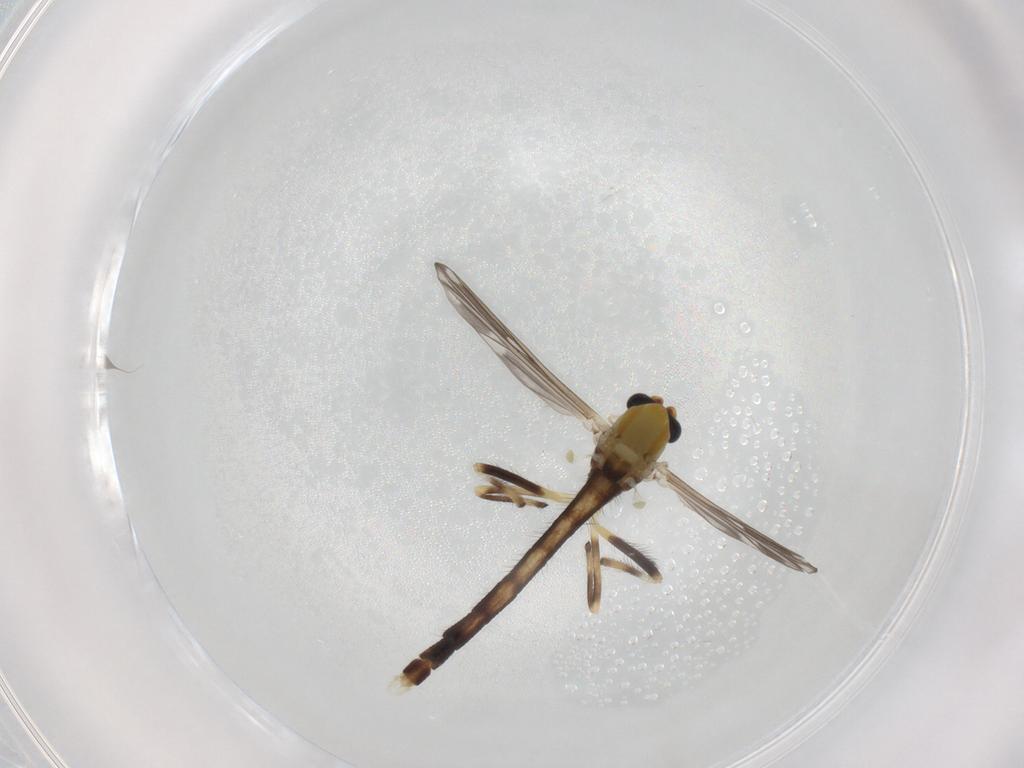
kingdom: Animalia
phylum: Arthropoda
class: Insecta
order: Diptera
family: Chironomidae
